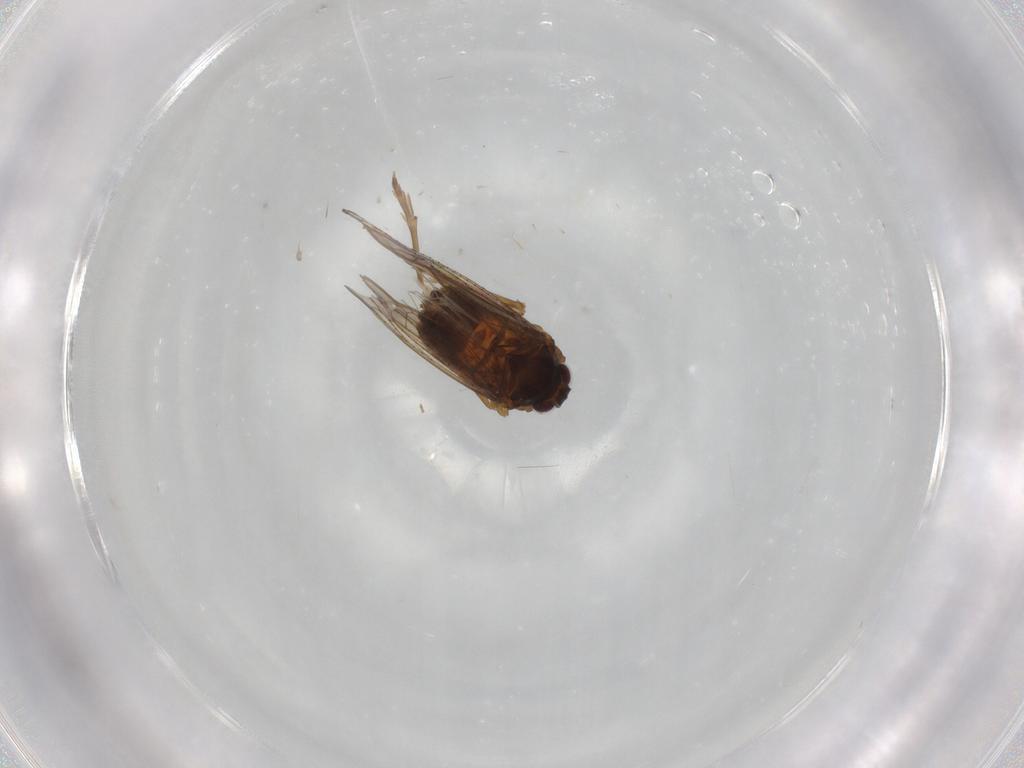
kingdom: Animalia
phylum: Arthropoda
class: Insecta
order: Hemiptera
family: Delphacidae
